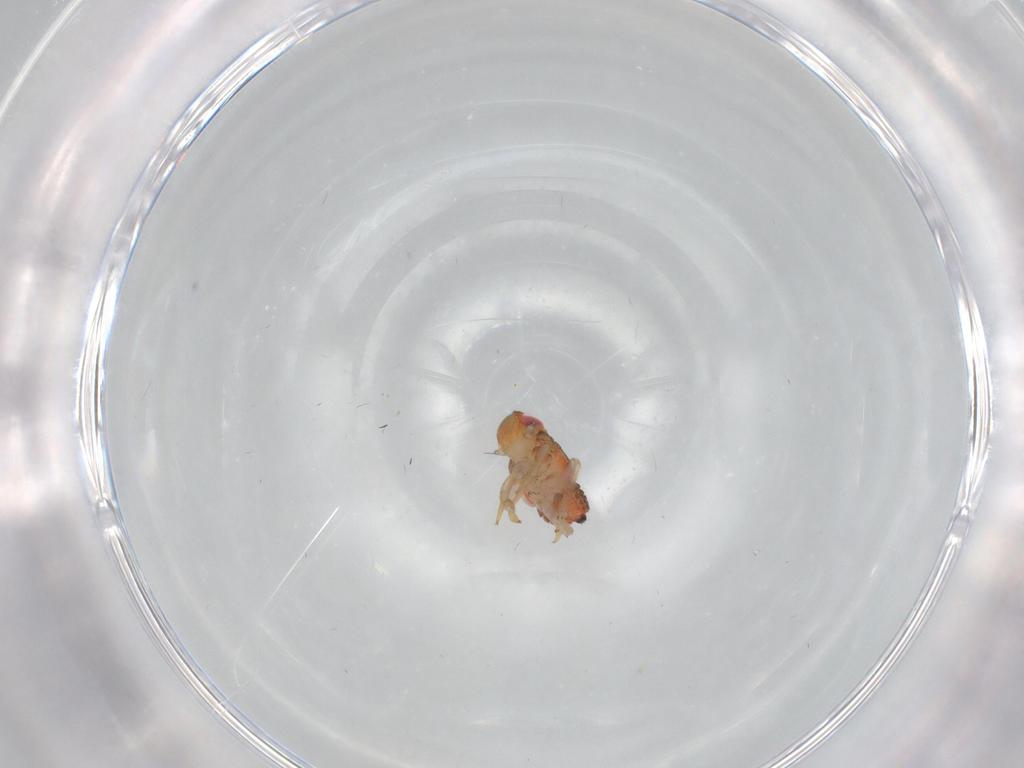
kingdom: Animalia
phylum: Arthropoda
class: Insecta
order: Hemiptera
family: Issidae
